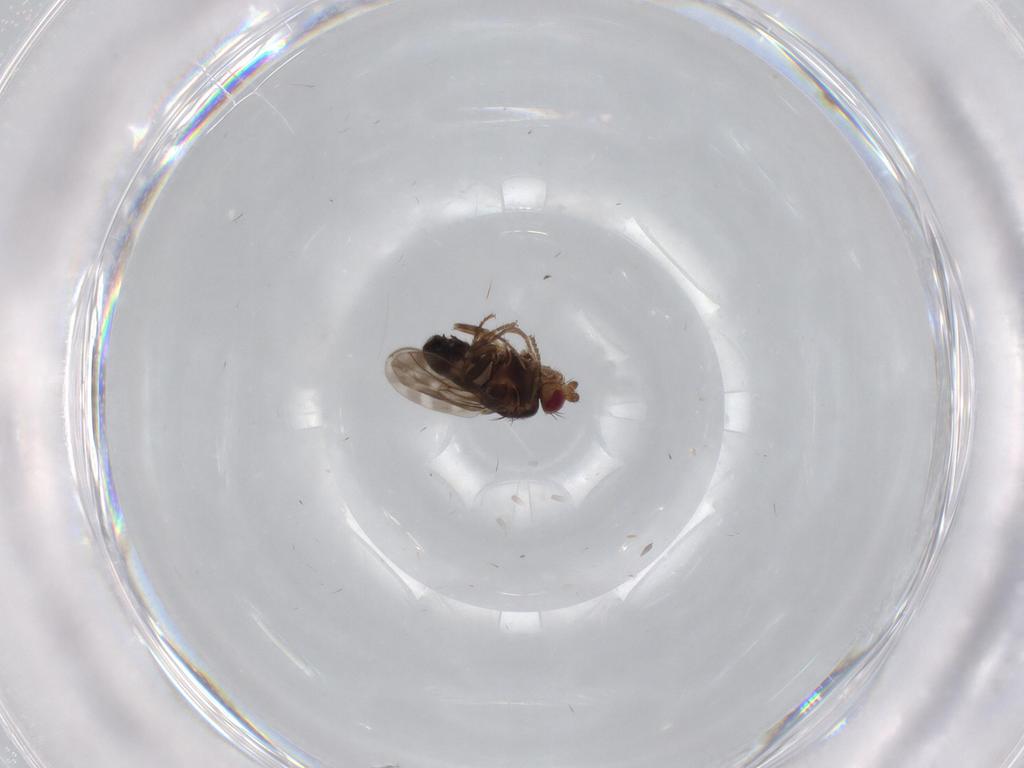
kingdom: Animalia
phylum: Arthropoda
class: Insecta
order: Diptera
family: Sphaeroceridae
